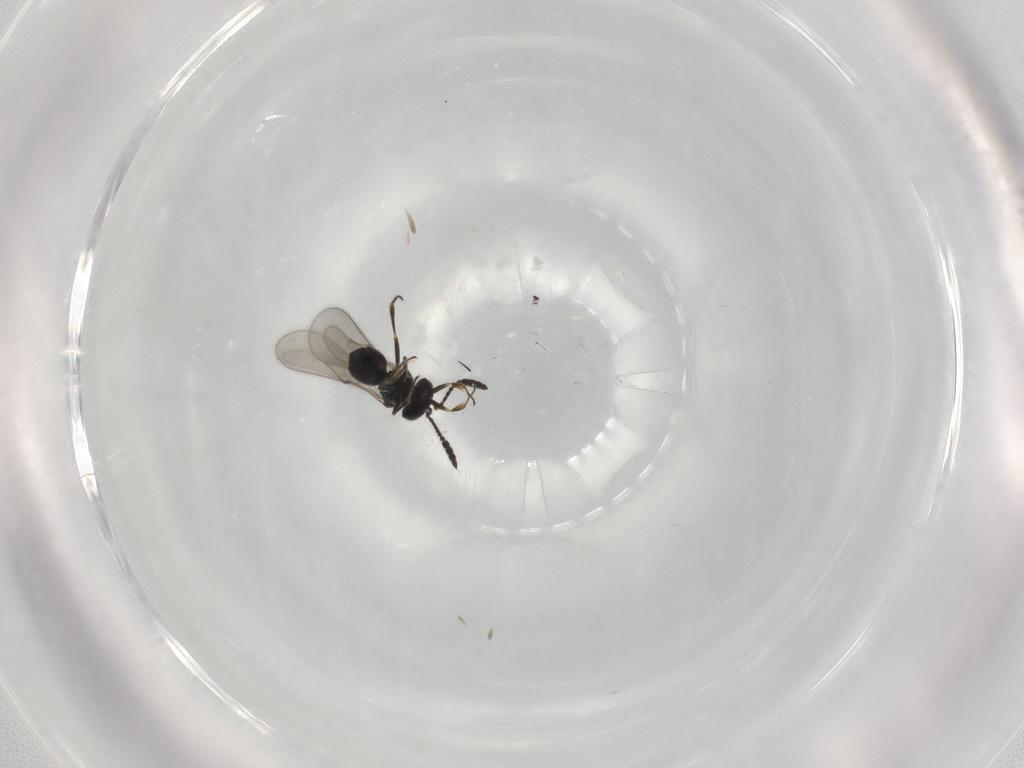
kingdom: Animalia
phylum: Arthropoda
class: Insecta
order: Hymenoptera
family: Scelionidae
